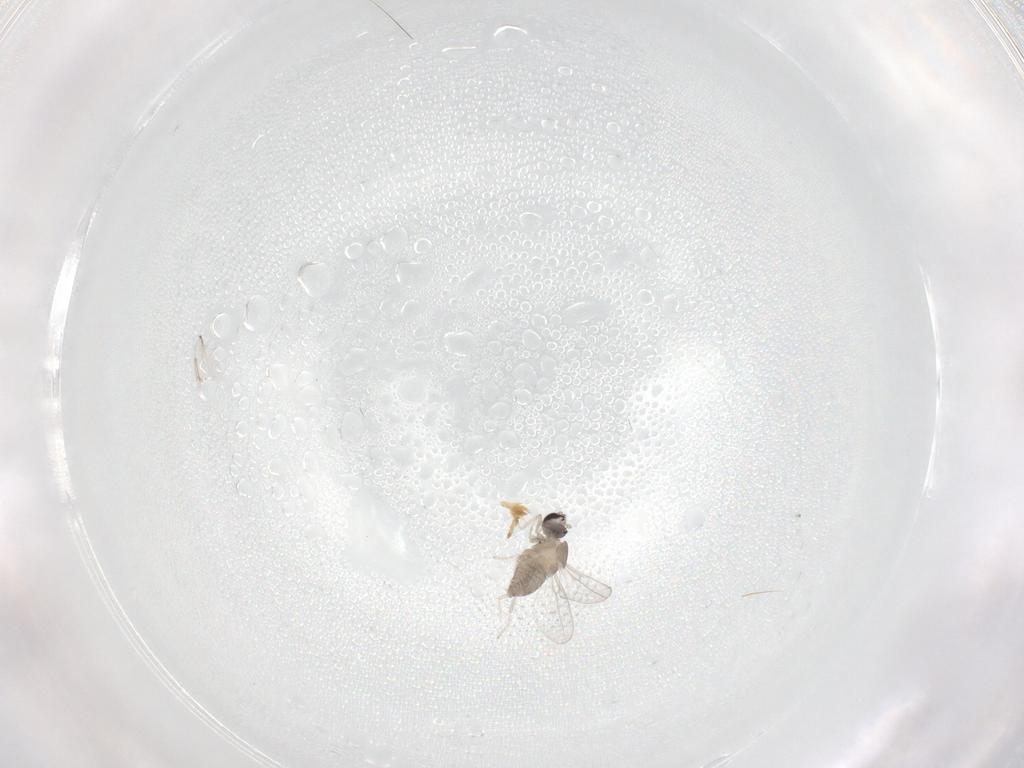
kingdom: Animalia
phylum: Arthropoda
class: Insecta
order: Diptera
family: Cecidomyiidae
